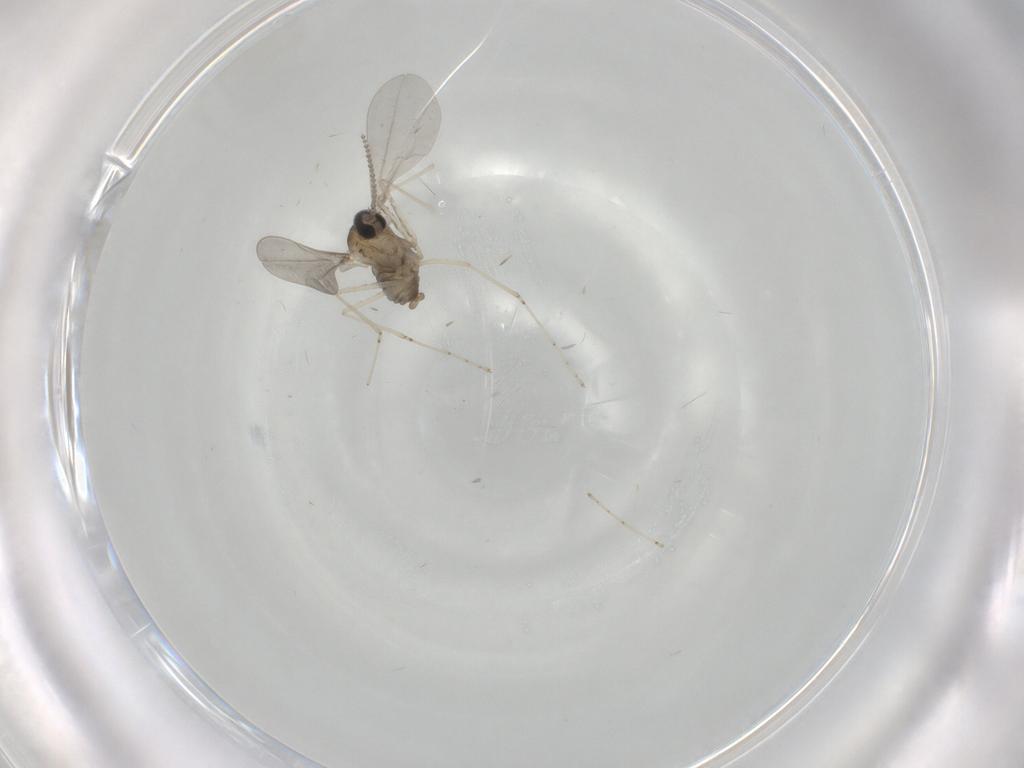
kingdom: Animalia
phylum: Arthropoda
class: Insecta
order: Diptera
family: Cecidomyiidae
